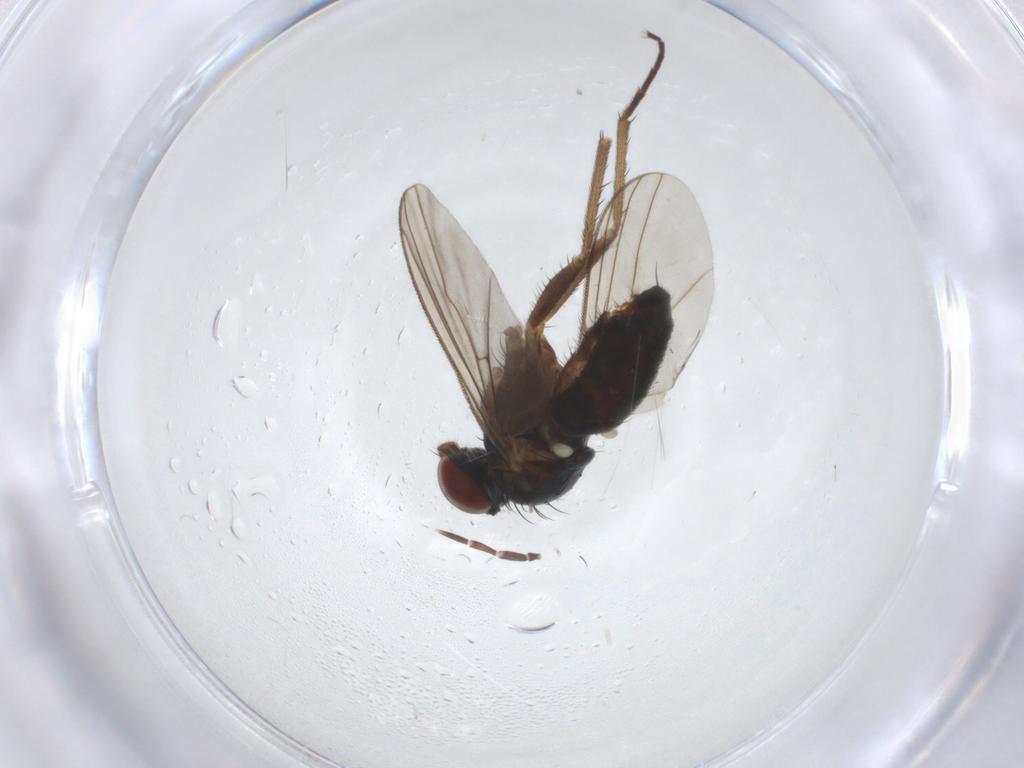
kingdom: Animalia
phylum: Arthropoda
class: Insecta
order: Diptera
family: Dolichopodidae
